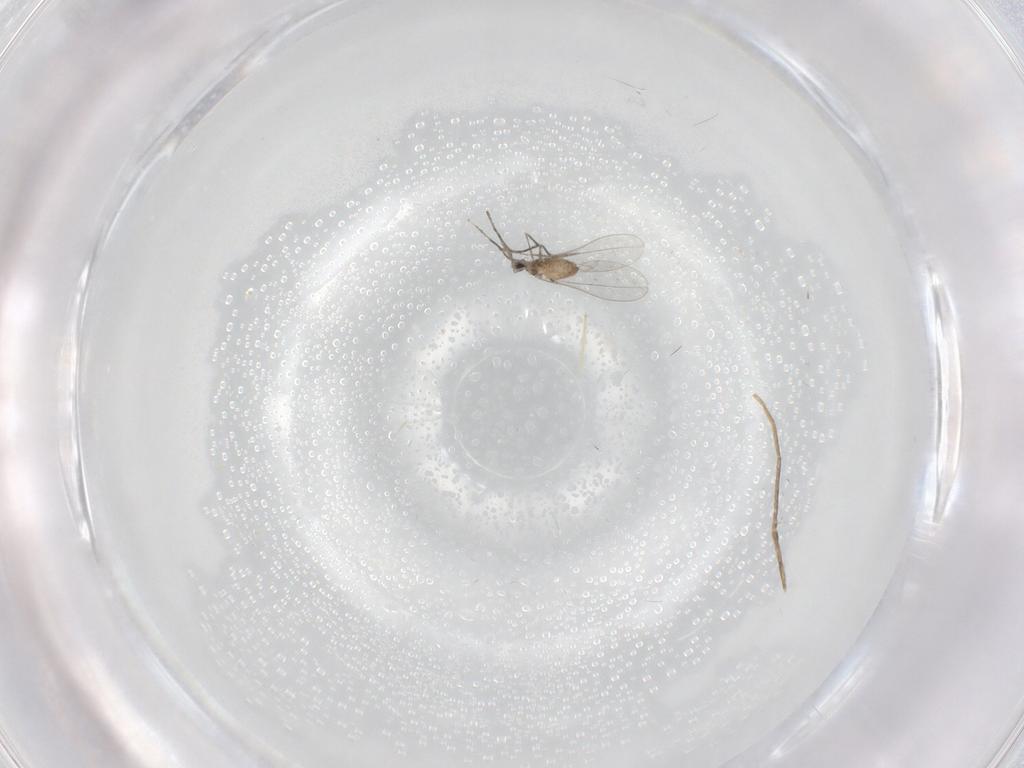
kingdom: Animalia
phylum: Arthropoda
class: Insecta
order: Diptera
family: Cecidomyiidae
